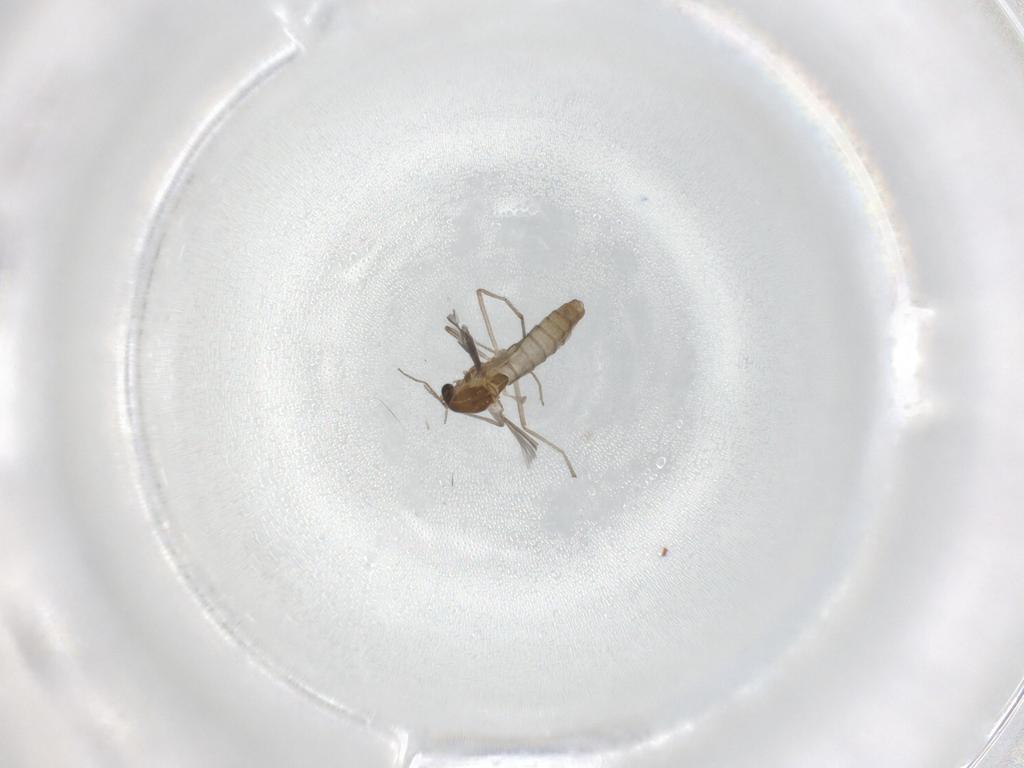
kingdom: Animalia
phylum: Arthropoda
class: Insecta
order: Diptera
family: Chironomidae
